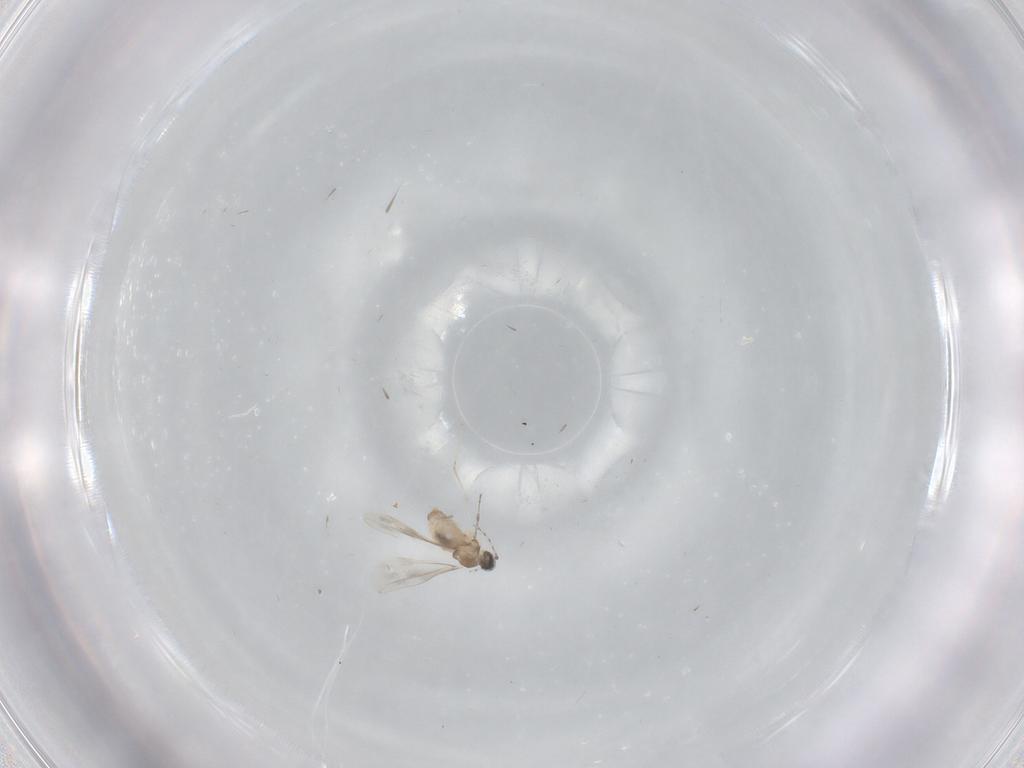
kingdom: Animalia
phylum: Arthropoda
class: Insecta
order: Diptera
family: Cecidomyiidae
